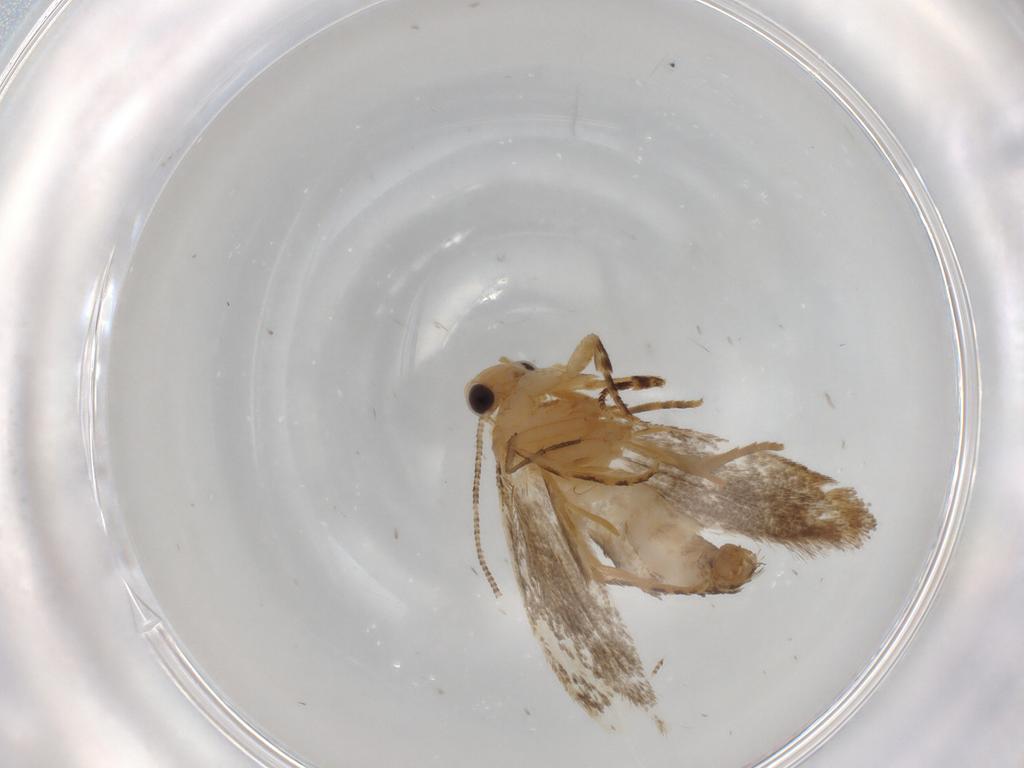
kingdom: Animalia
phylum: Arthropoda
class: Insecta
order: Lepidoptera
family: Tineidae
